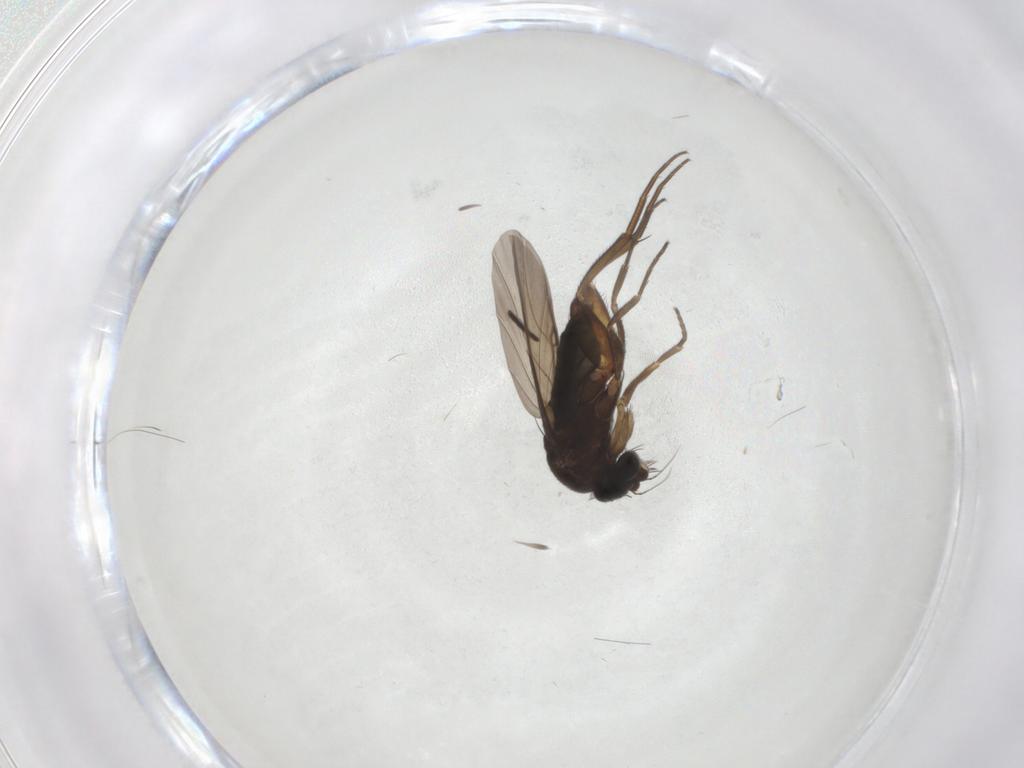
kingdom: Animalia
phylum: Arthropoda
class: Insecta
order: Diptera
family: Phoridae
